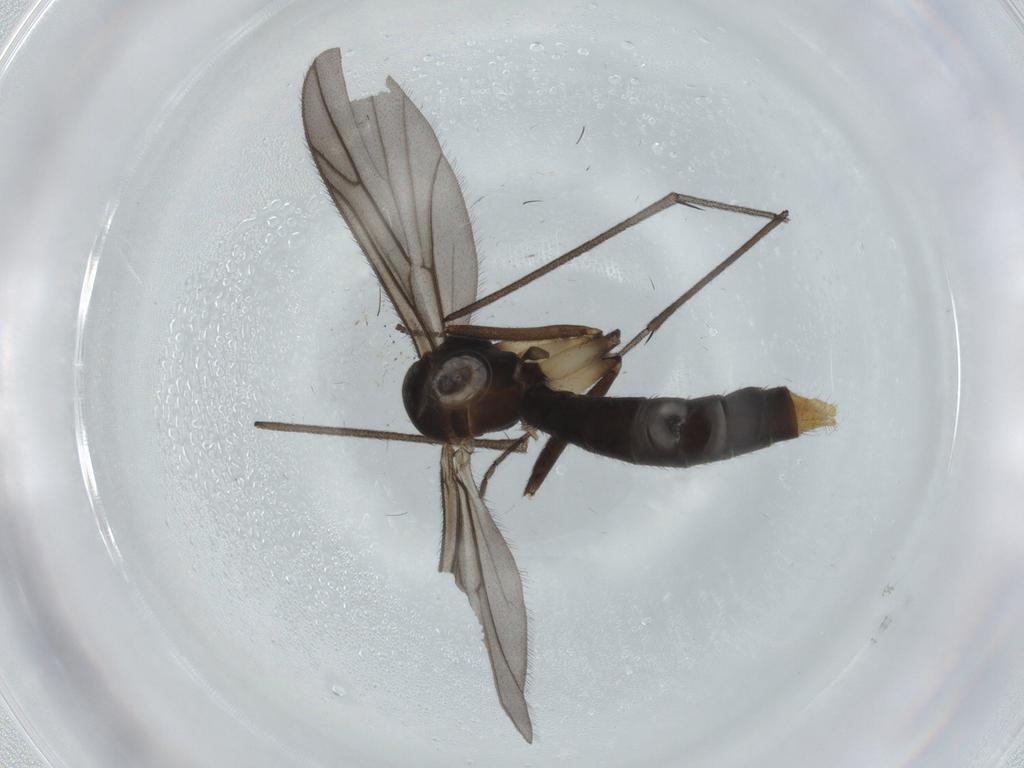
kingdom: Animalia
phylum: Arthropoda
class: Insecta
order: Diptera
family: Ditomyiidae
